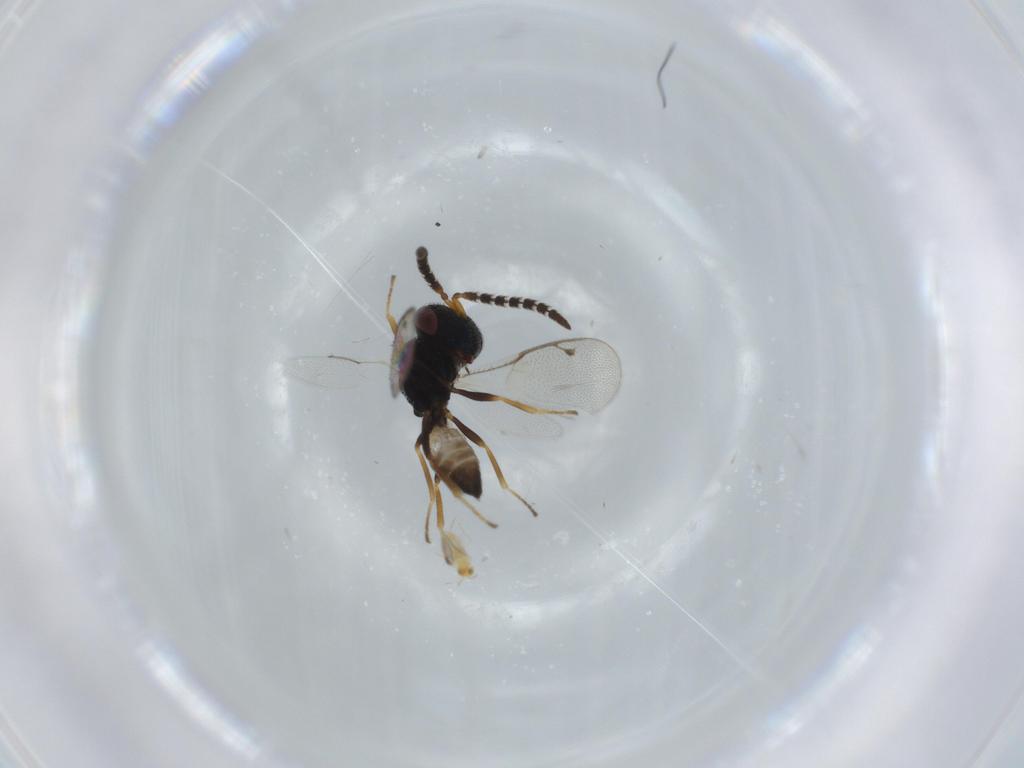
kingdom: Animalia
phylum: Arthropoda
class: Insecta
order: Hymenoptera
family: Agaonidae
